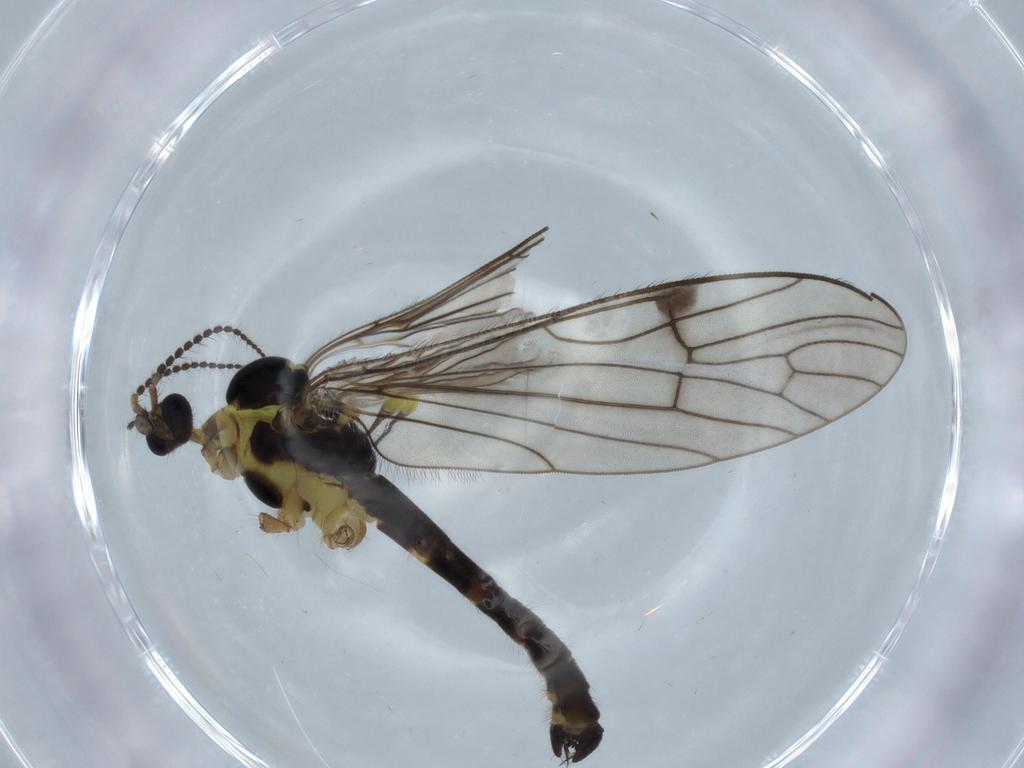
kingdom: Animalia
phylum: Arthropoda
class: Insecta
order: Diptera
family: Limoniidae
